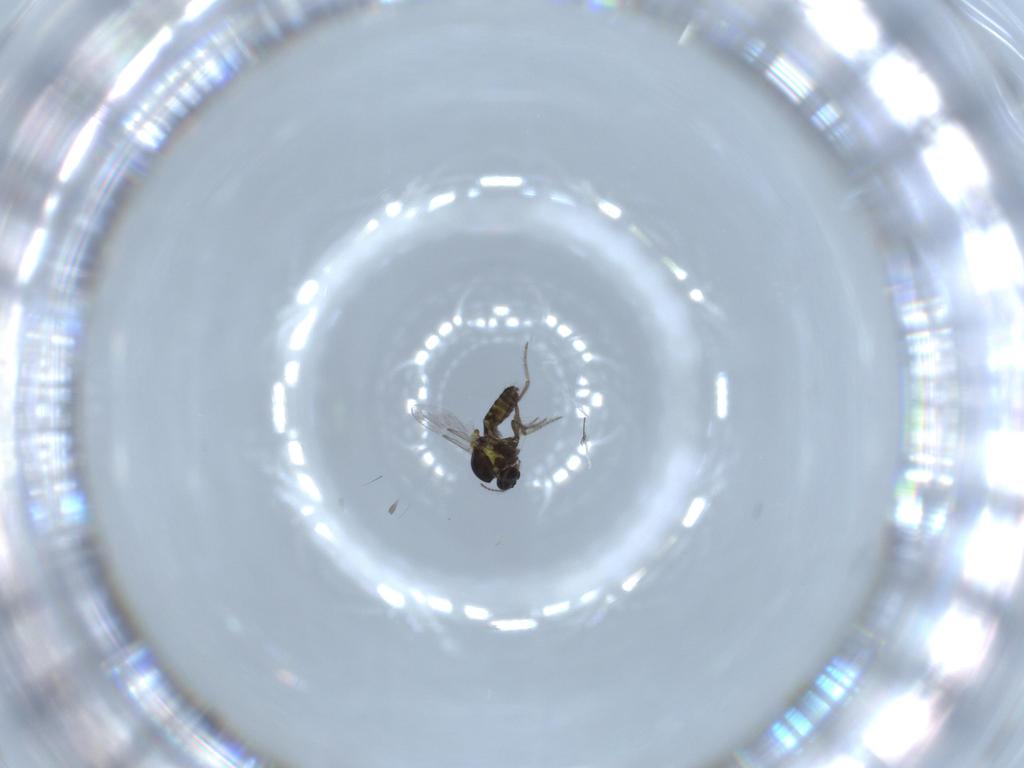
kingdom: Animalia
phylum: Arthropoda
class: Insecta
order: Diptera
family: Ceratopogonidae
